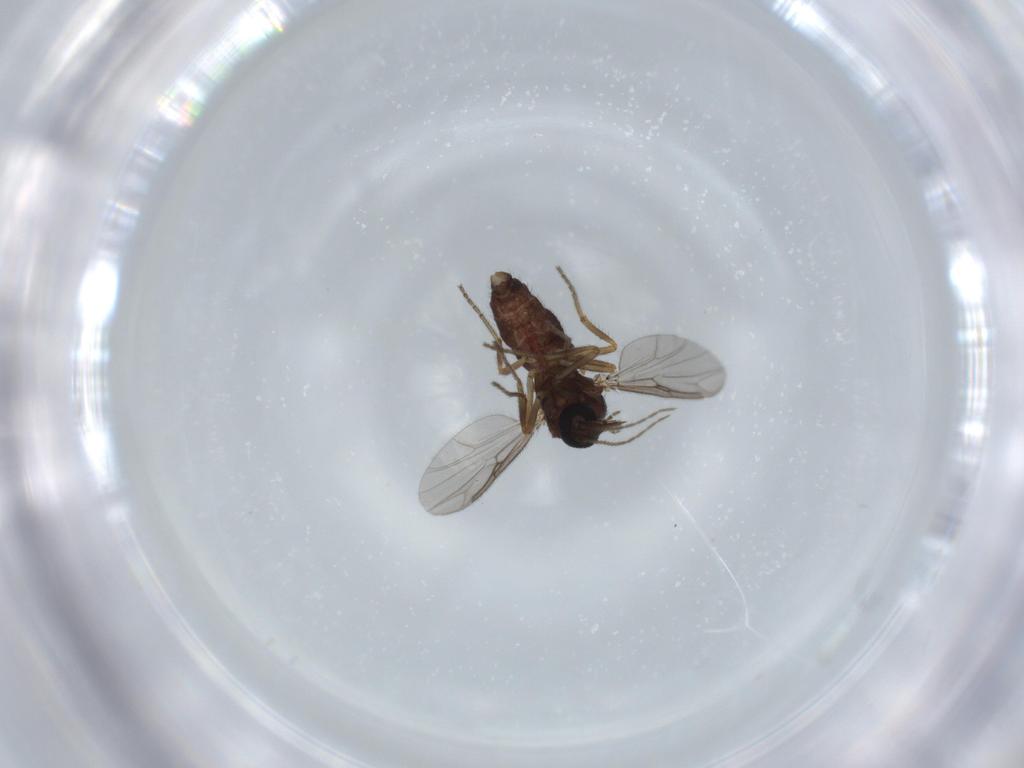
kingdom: Animalia
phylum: Arthropoda
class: Insecta
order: Diptera
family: Ceratopogonidae
